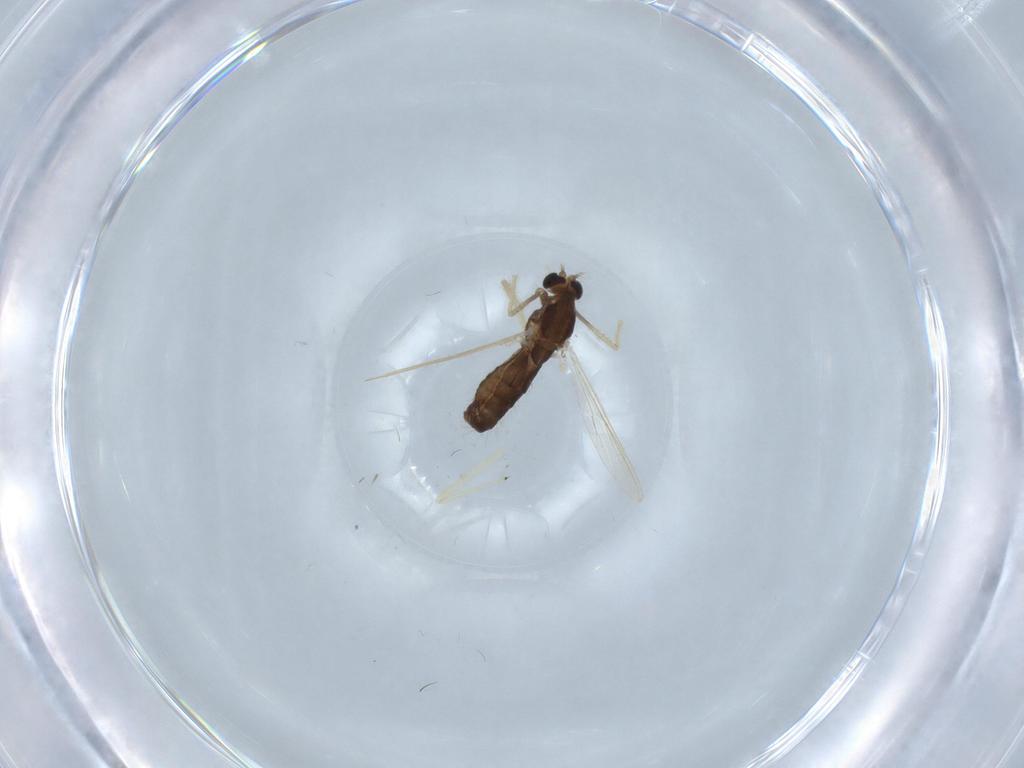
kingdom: Animalia
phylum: Arthropoda
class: Insecta
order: Diptera
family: Chironomidae
